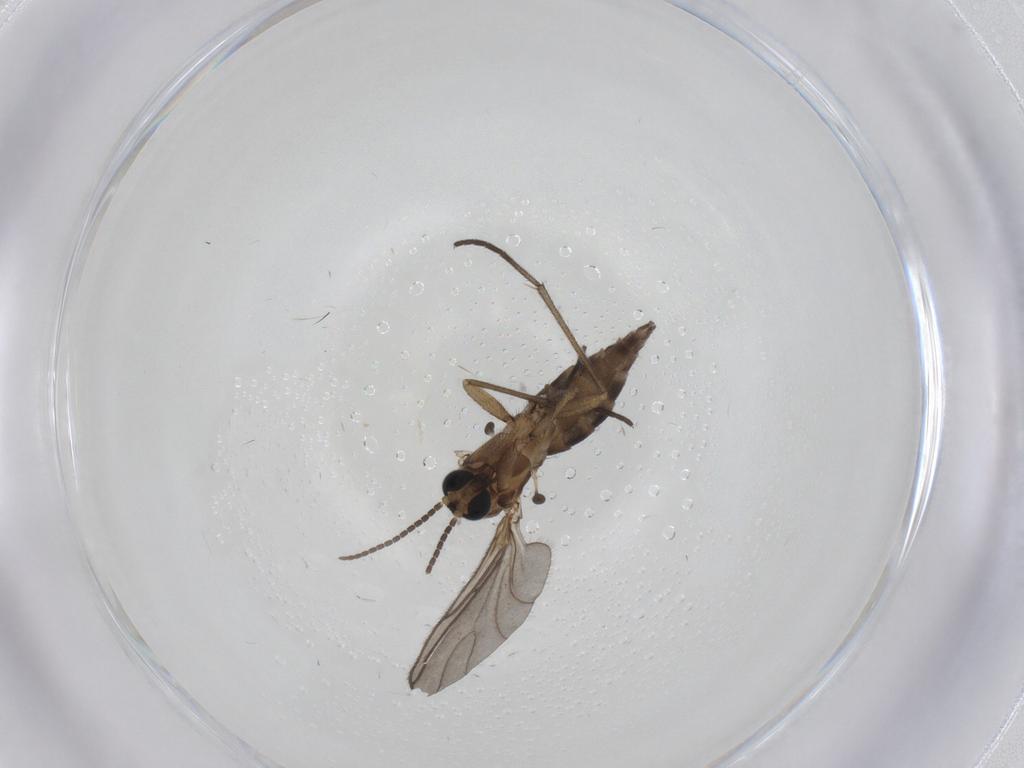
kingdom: Animalia
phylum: Arthropoda
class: Insecta
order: Diptera
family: Sciaridae
